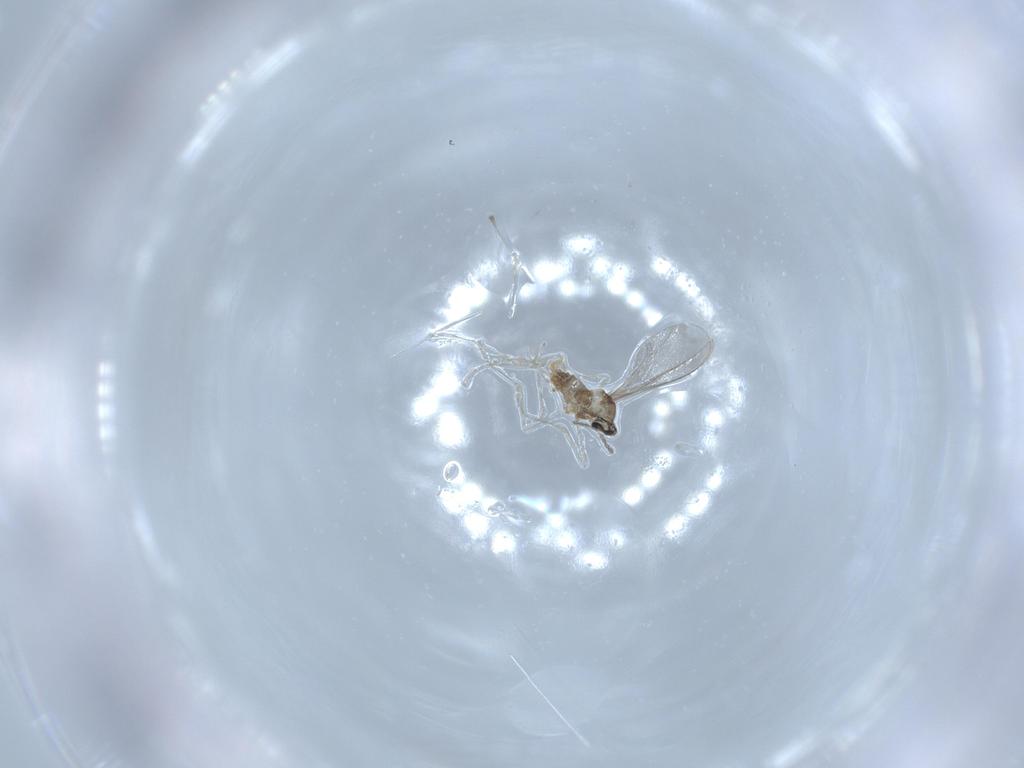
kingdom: Animalia
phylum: Arthropoda
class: Insecta
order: Diptera
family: Cecidomyiidae
